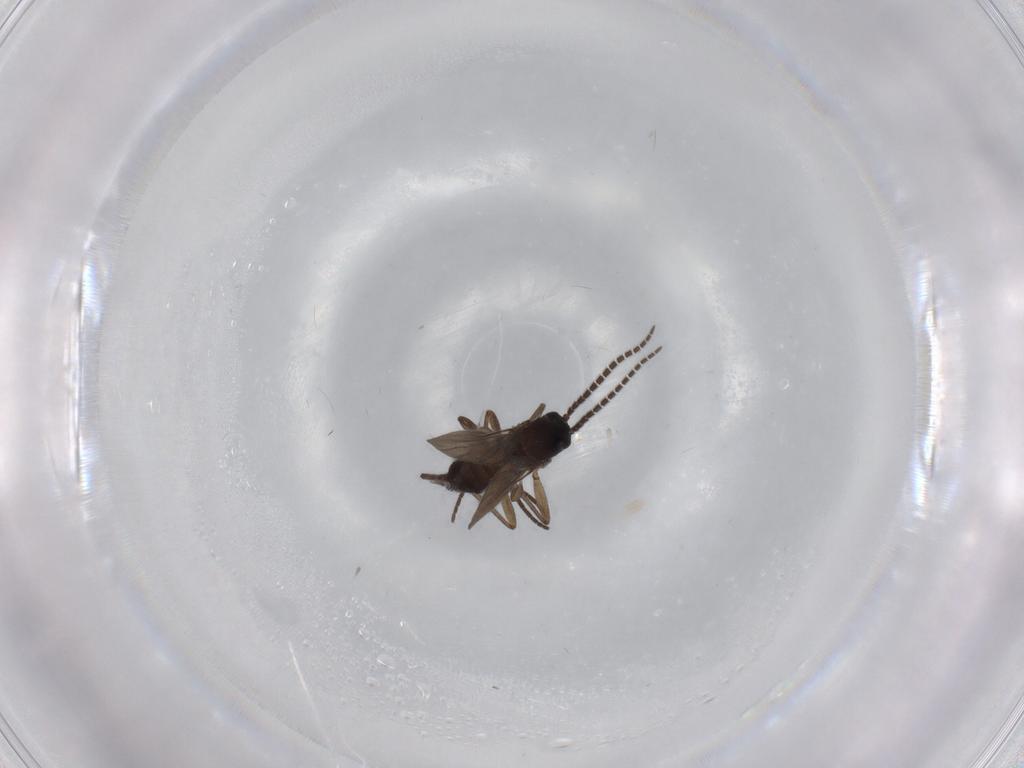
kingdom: Animalia
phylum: Arthropoda
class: Insecta
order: Diptera
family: Sciaridae
